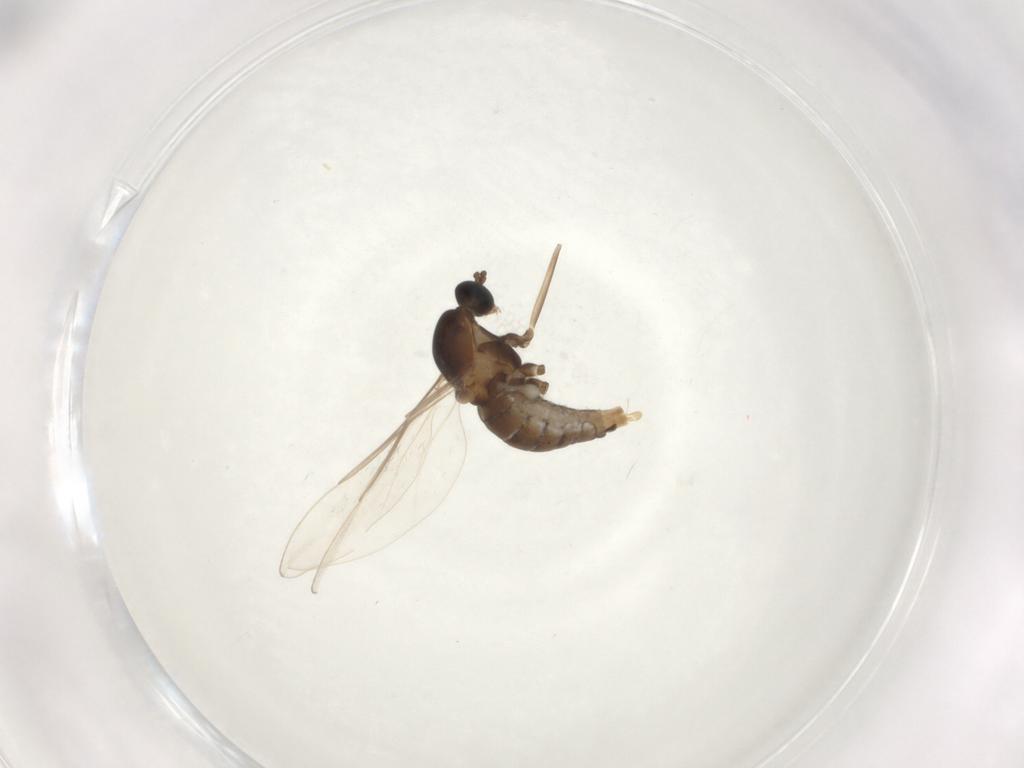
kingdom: Animalia
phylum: Arthropoda
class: Insecta
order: Diptera
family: Cecidomyiidae
